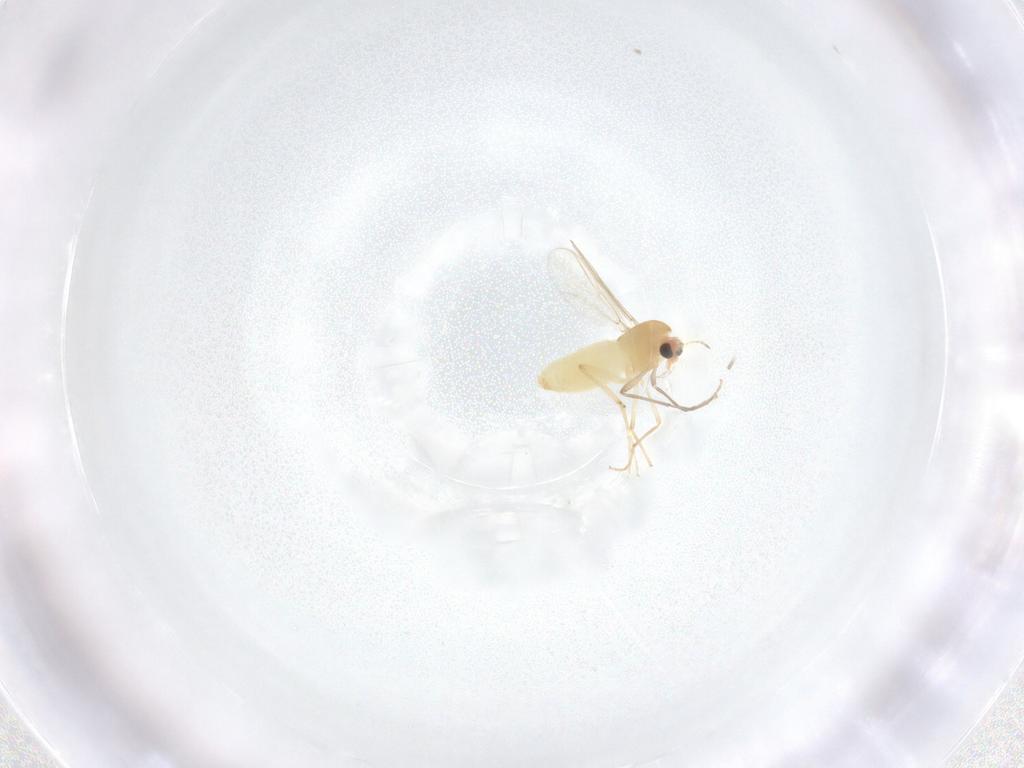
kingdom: Animalia
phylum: Arthropoda
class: Insecta
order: Diptera
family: Chironomidae
